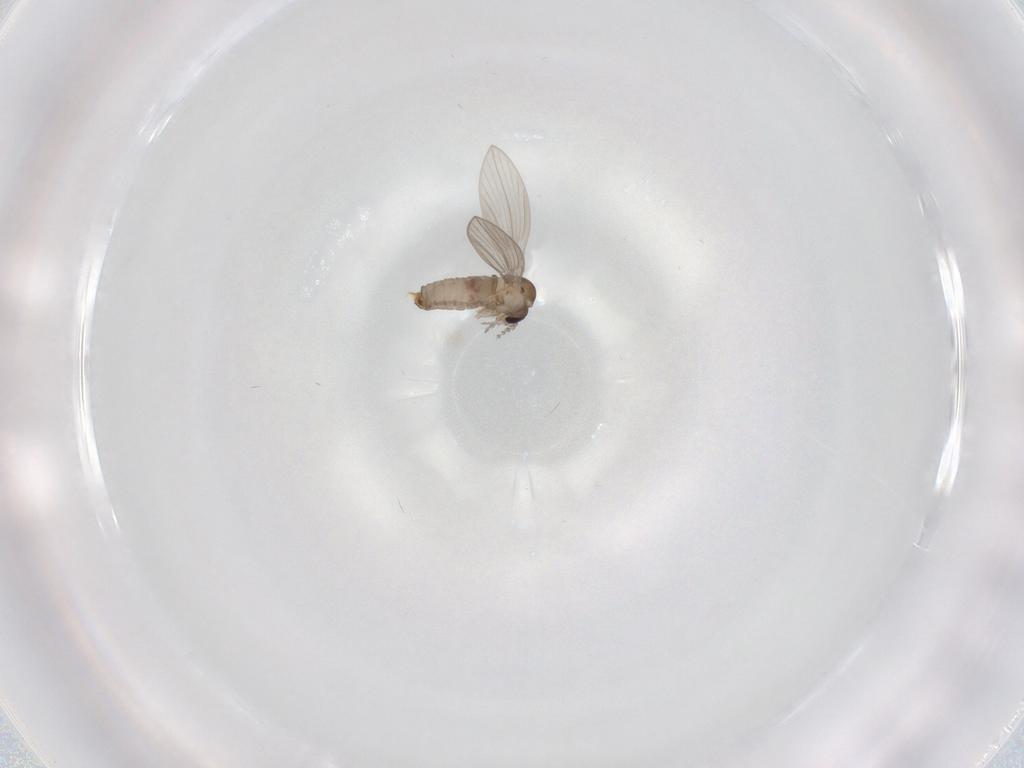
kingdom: Animalia
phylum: Arthropoda
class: Insecta
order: Diptera
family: Psychodidae
